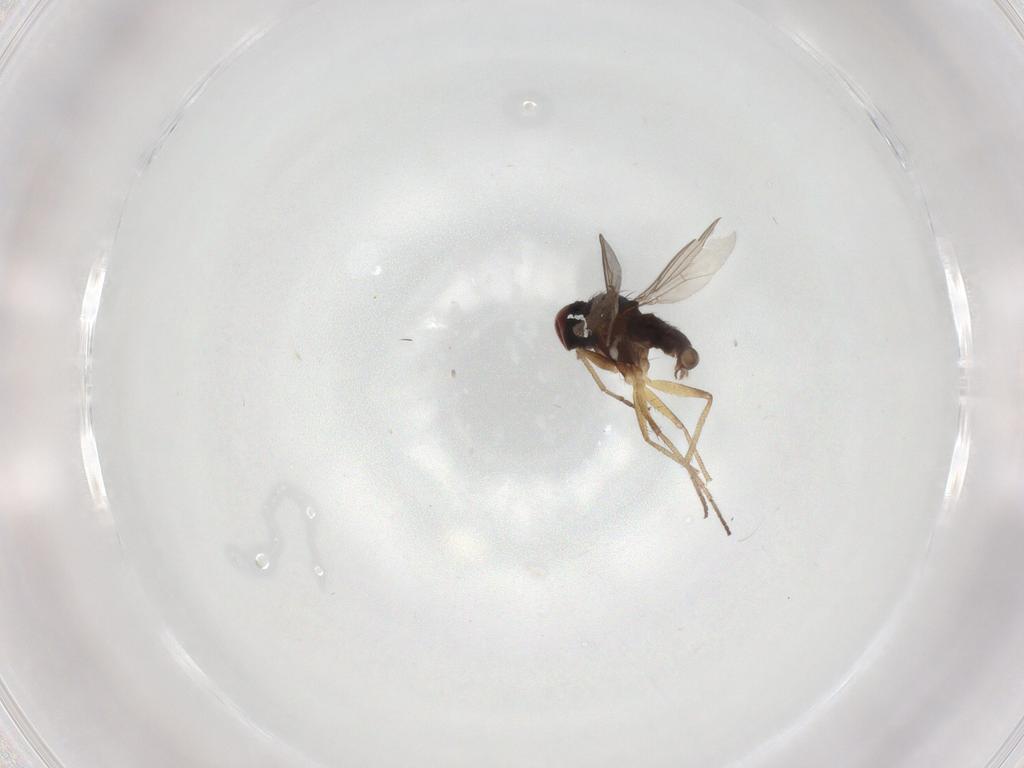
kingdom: Animalia
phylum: Arthropoda
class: Insecta
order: Diptera
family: Dolichopodidae
